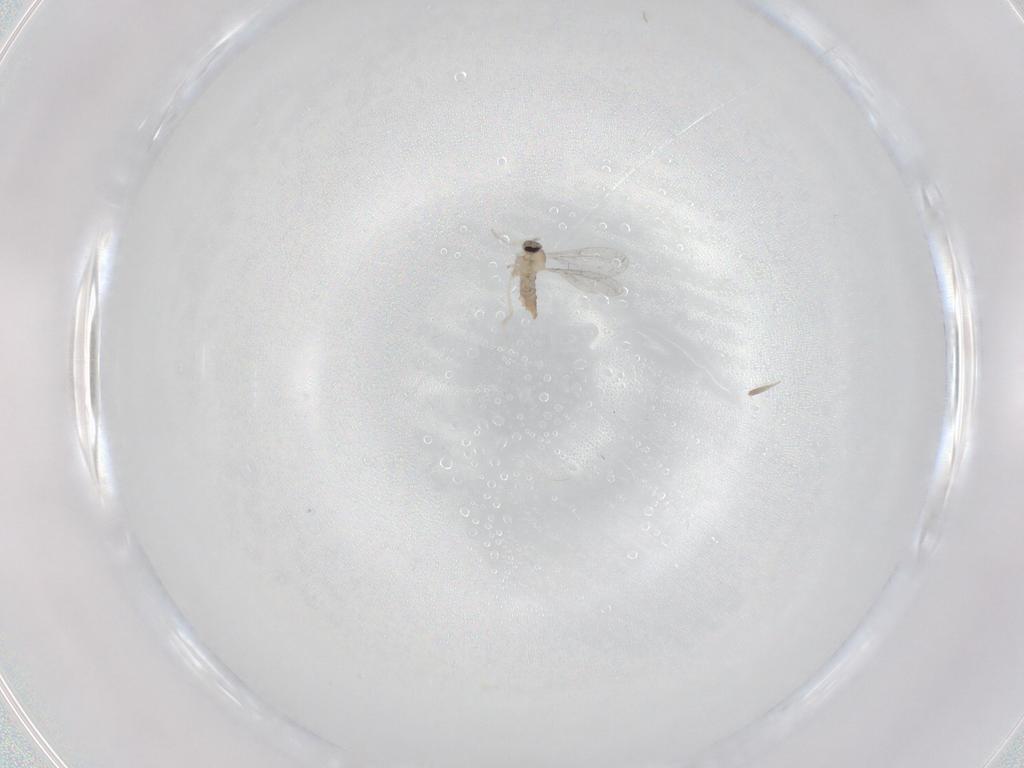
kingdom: Animalia
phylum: Arthropoda
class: Insecta
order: Diptera
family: Cecidomyiidae
